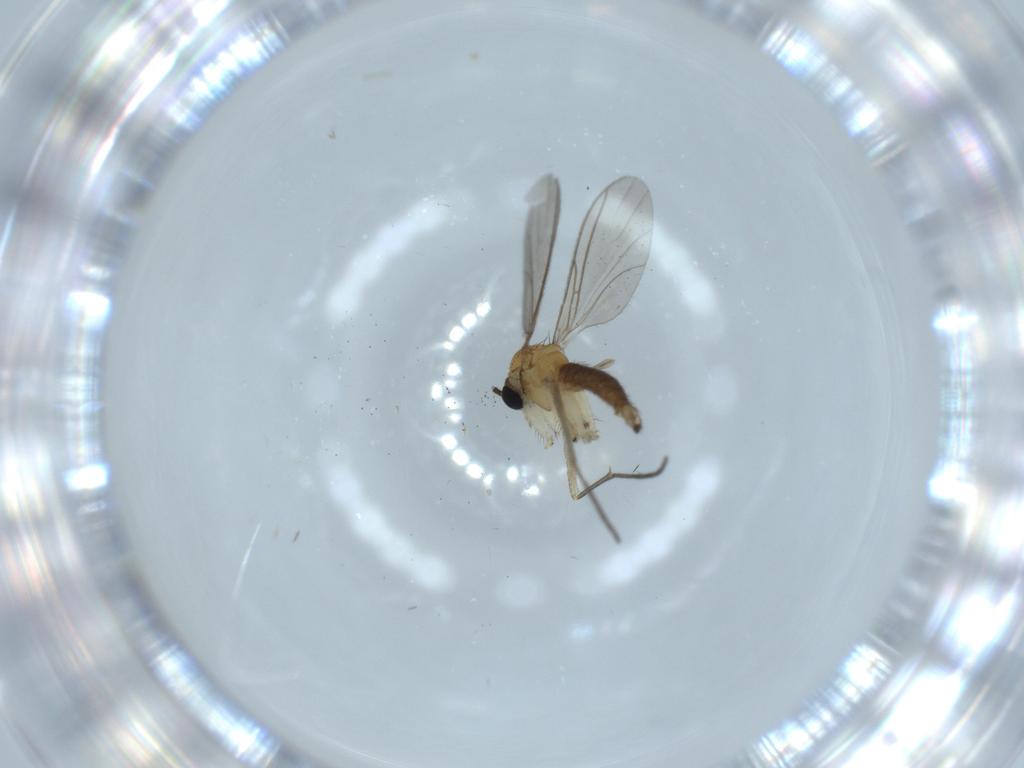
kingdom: Animalia
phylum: Arthropoda
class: Insecta
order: Diptera
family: Sciaridae
